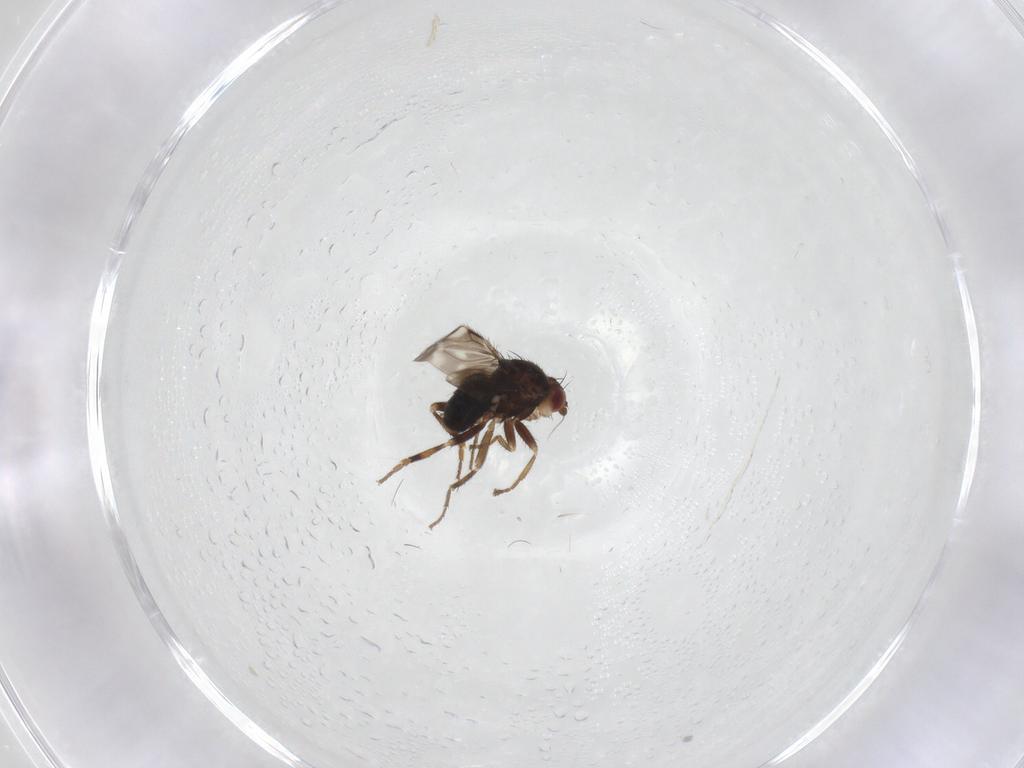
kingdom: Animalia
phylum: Arthropoda
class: Insecta
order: Diptera
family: Sphaeroceridae
